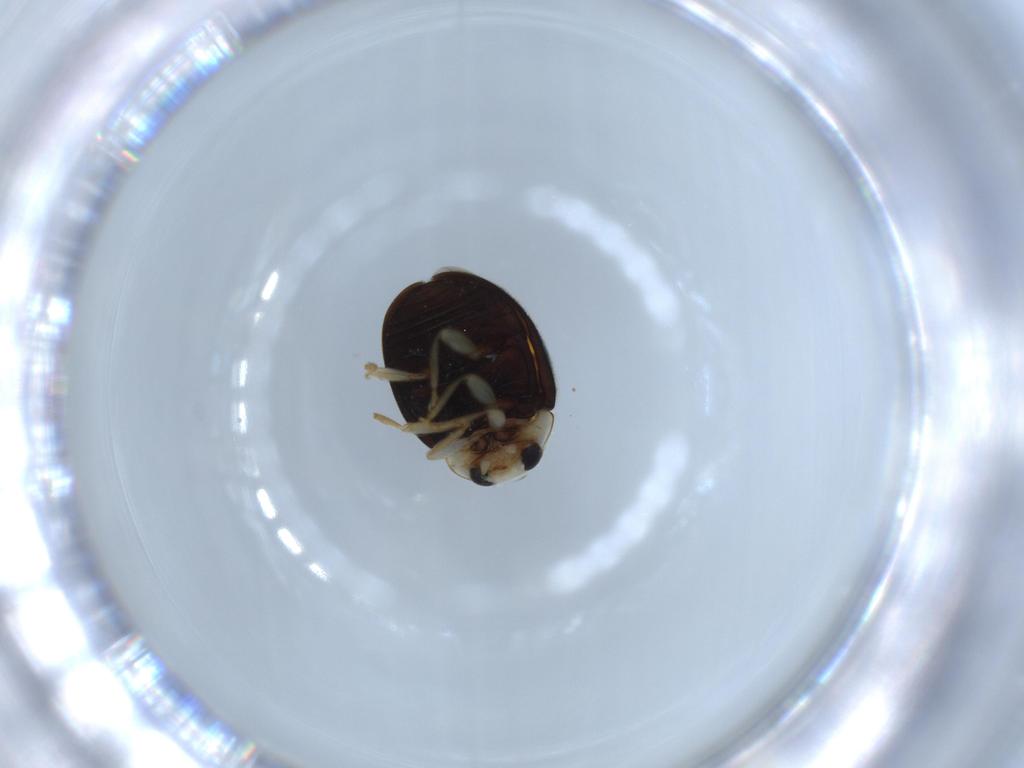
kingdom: Animalia
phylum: Arthropoda
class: Insecta
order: Coleoptera
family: Coccinellidae
